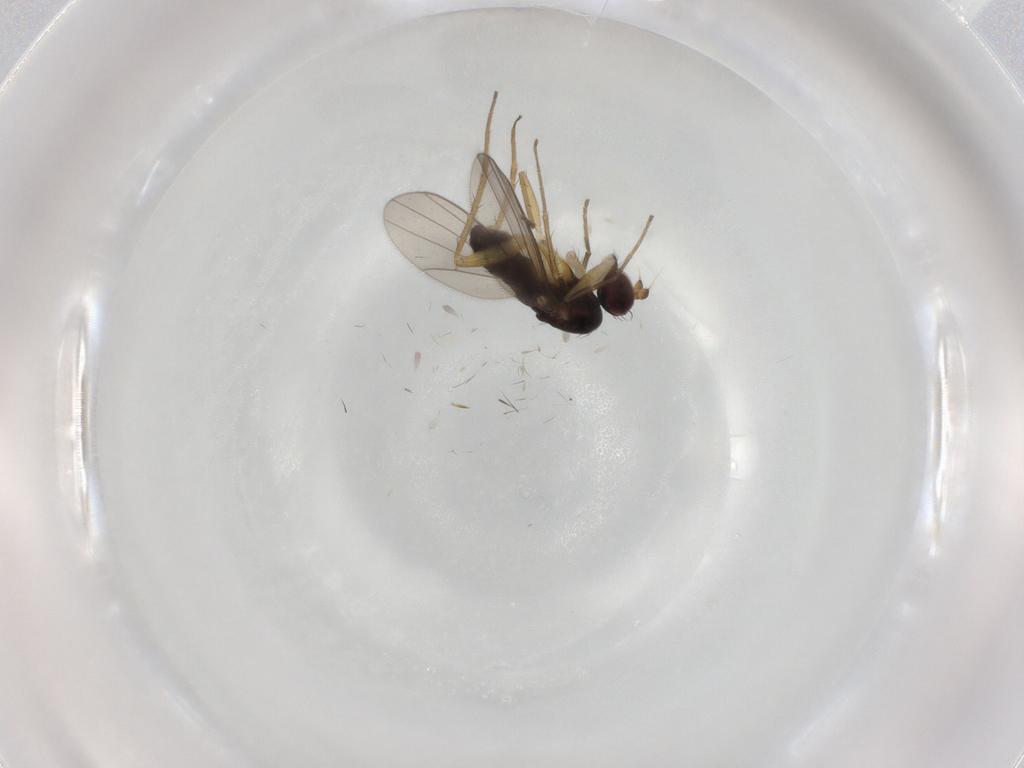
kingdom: Animalia
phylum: Arthropoda
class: Insecta
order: Diptera
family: Dolichopodidae
